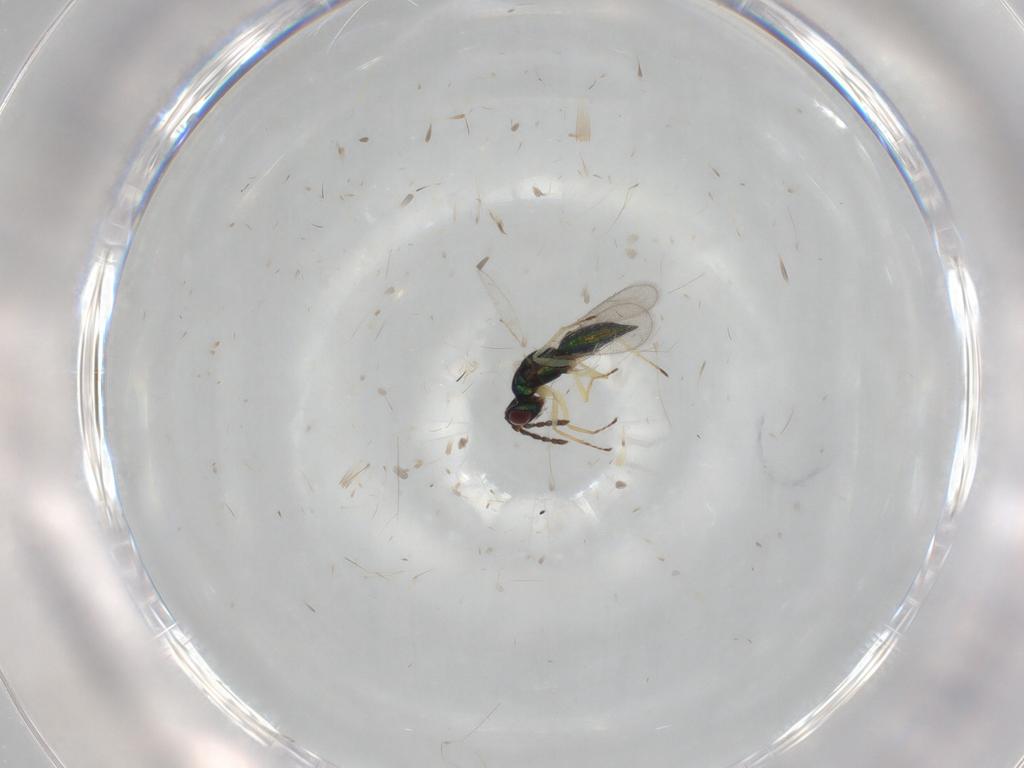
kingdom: Animalia
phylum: Arthropoda
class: Insecta
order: Hymenoptera
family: Eulophidae
